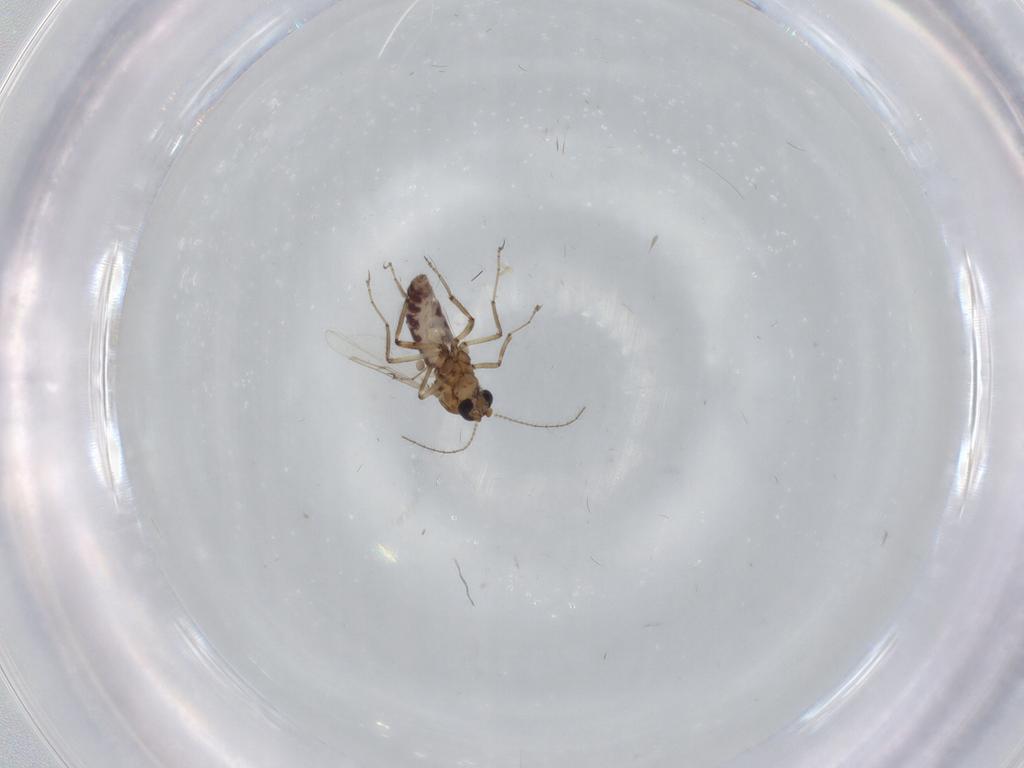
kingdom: Animalia
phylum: Arthropoda
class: Insecta
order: Diptera
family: Ceratopogonidae
